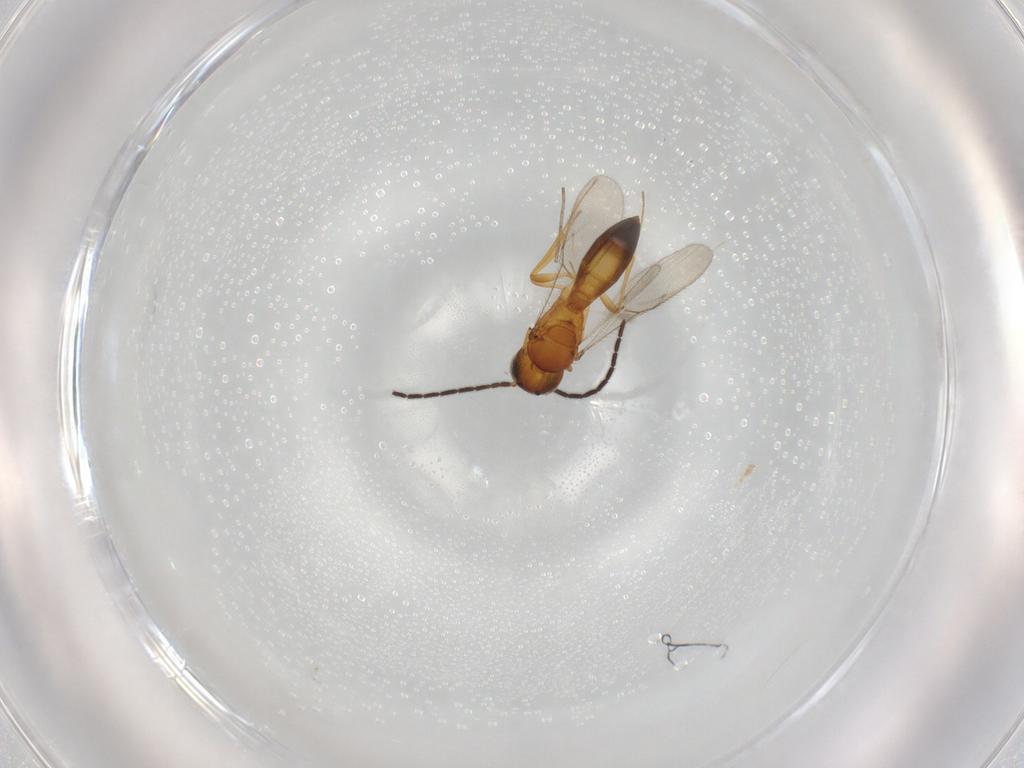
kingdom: Animalia
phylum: Arthropoda
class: Insecta
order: Hymenoptera
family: Scelionidae
